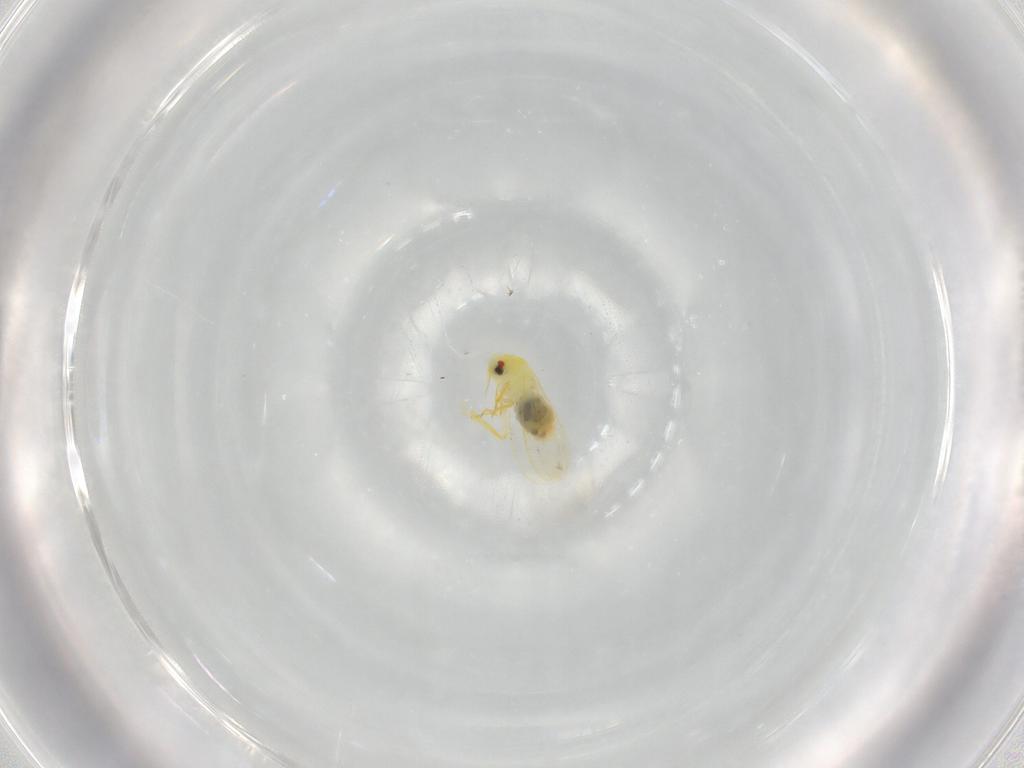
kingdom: Animalia
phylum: Arthropoda
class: Insecta
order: Hemiptera
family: Aleyrodidae
